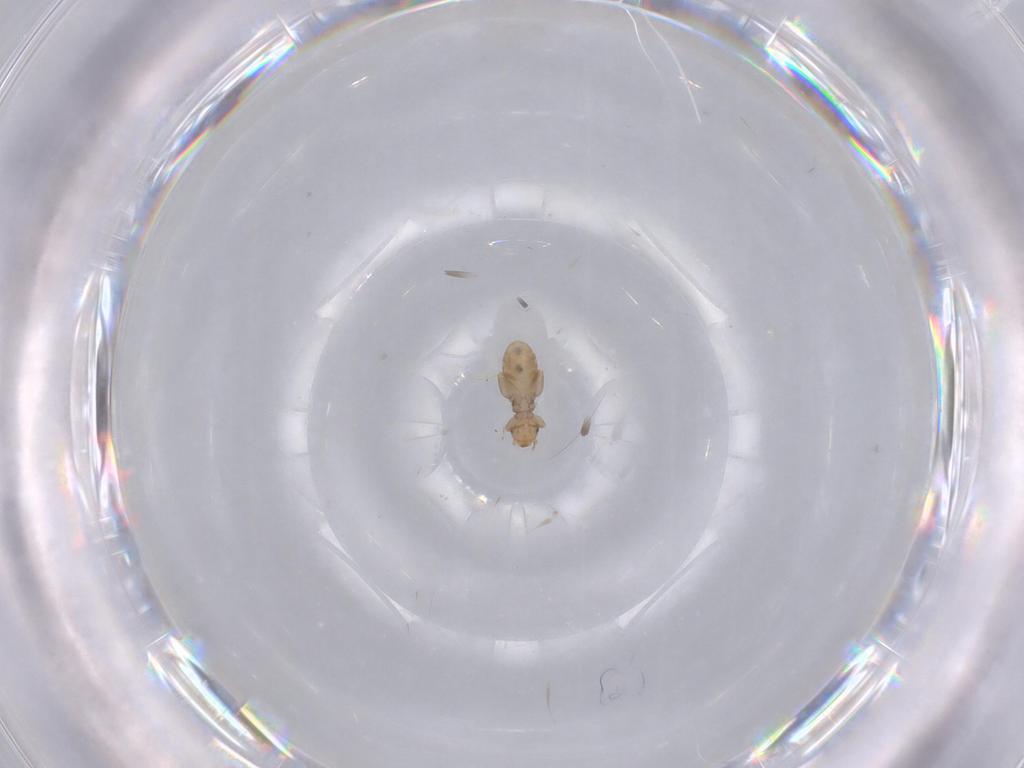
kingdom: Animalia
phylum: Arthropoda
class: Insecta
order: Psocodea
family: Liposcelididae
